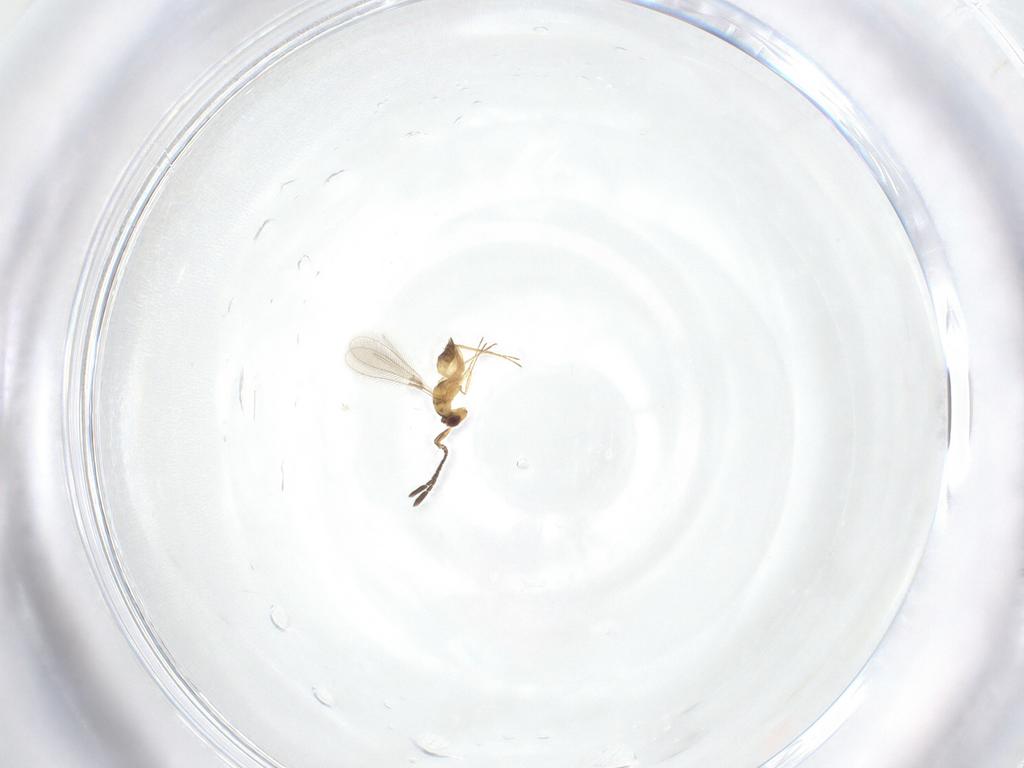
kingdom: Animalia
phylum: Arthropoda
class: Insecta
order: Hymenoptera
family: Mymaridae
